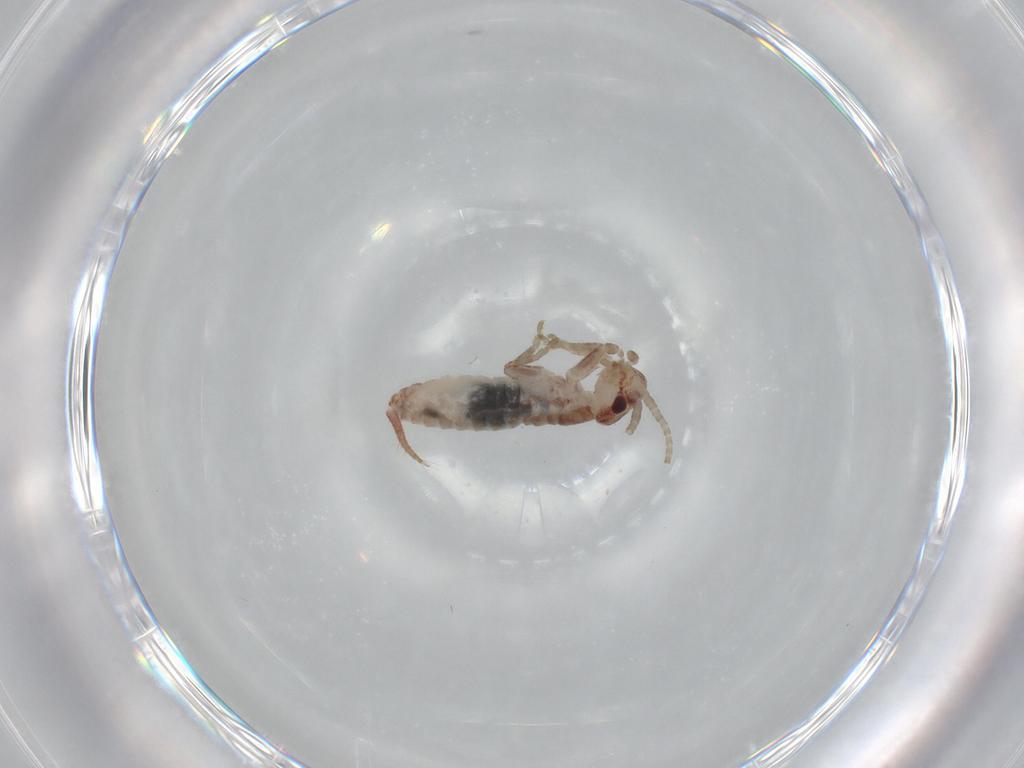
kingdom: Animalia
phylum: Arthropoda
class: Insecta
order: Orthoptera
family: Mogoplistidae
